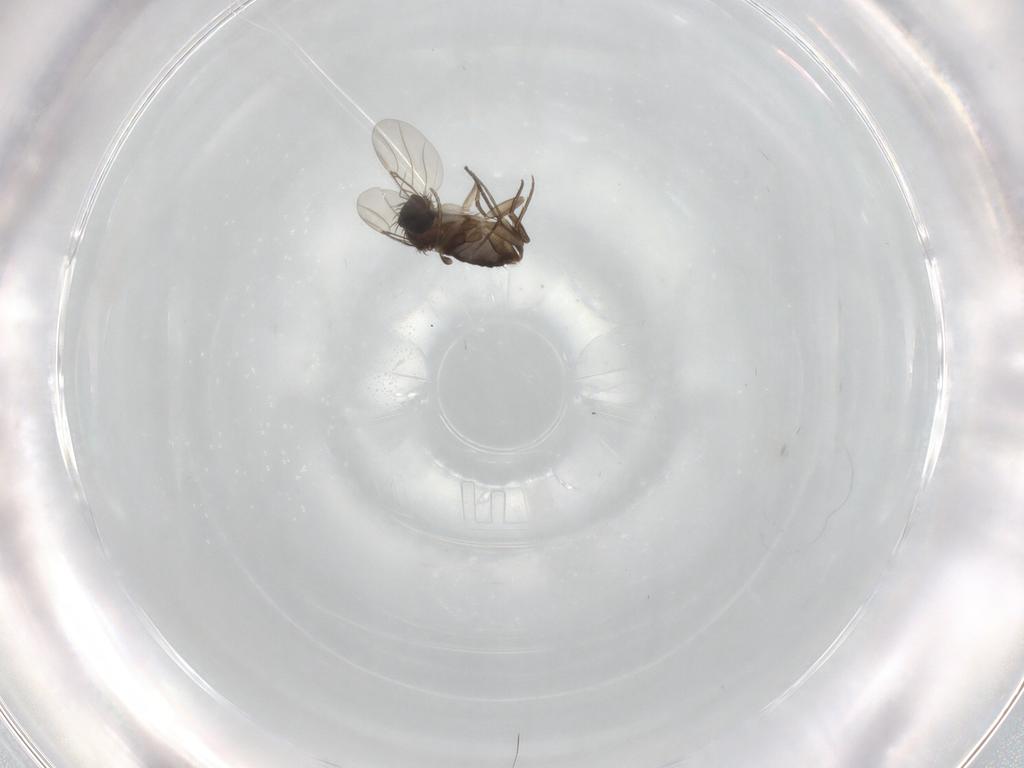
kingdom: Animalia
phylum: Arthropoda
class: Insecta
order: Diptera
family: Phoridae
